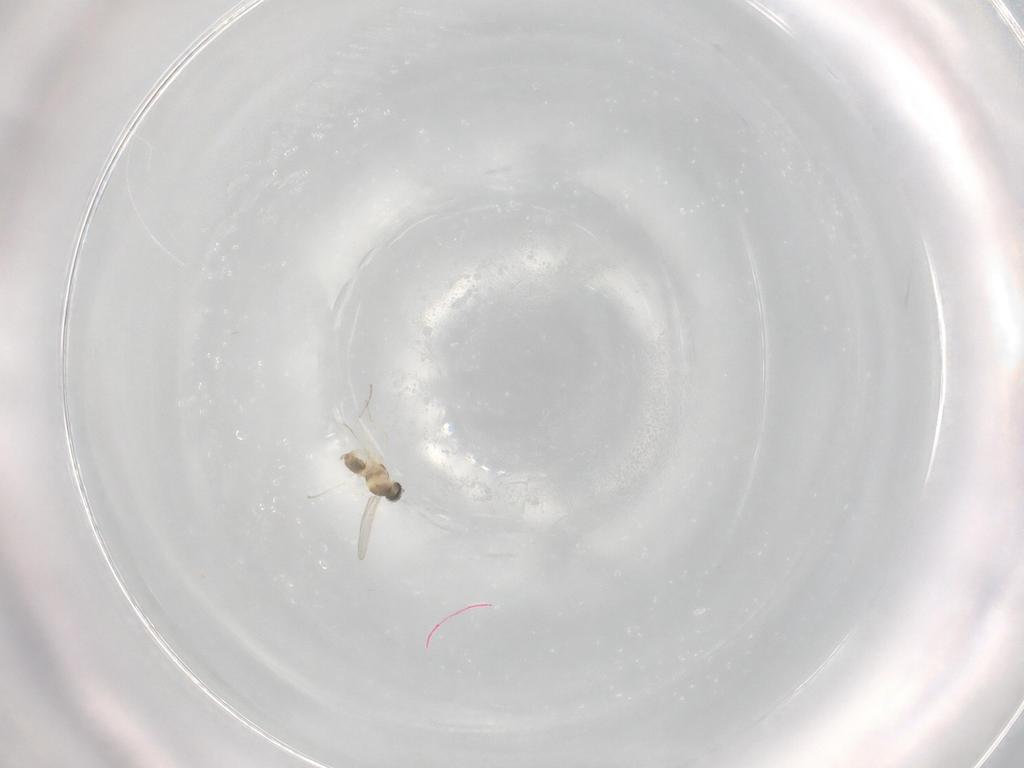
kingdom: Animalia
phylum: Arthropoda
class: Insecta
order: Diptera
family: Cecidomyiidae
